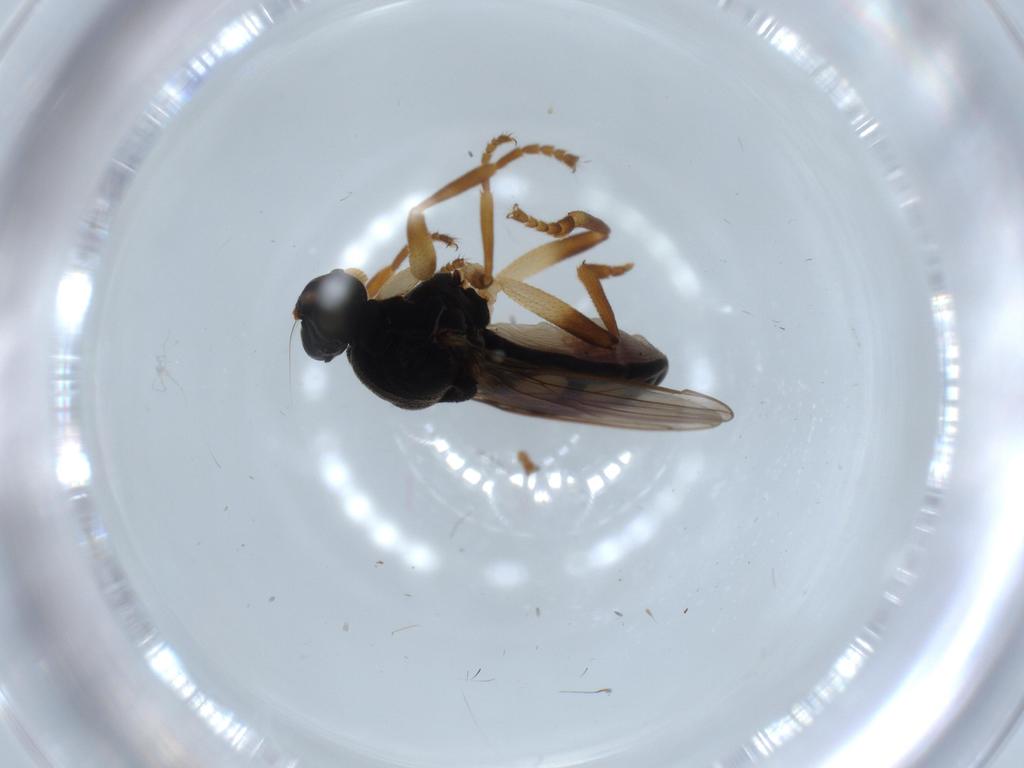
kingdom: Animalia
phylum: Arthropoda
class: Insecta
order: Diptera
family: Sphaeroceridae
